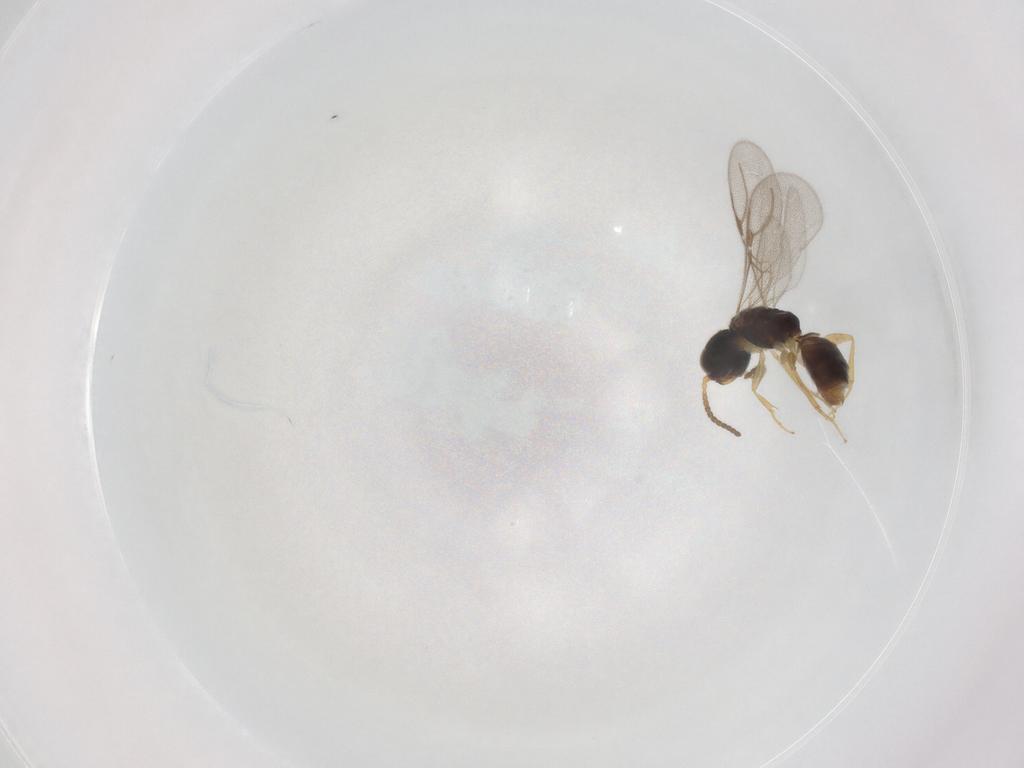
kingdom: Animalia
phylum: Arthropoda
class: Insecta
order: Hymenoptera
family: Bethylidae
